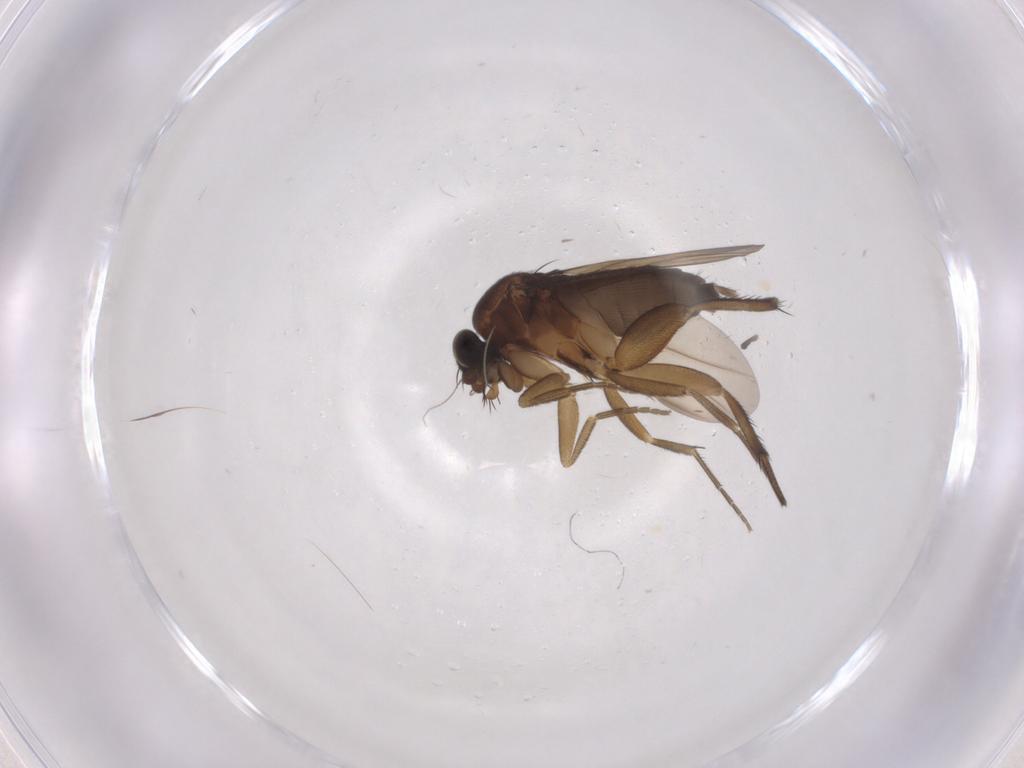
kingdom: Animalia
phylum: Arthropoda
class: Insecta
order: Diptera
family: Phoridae
